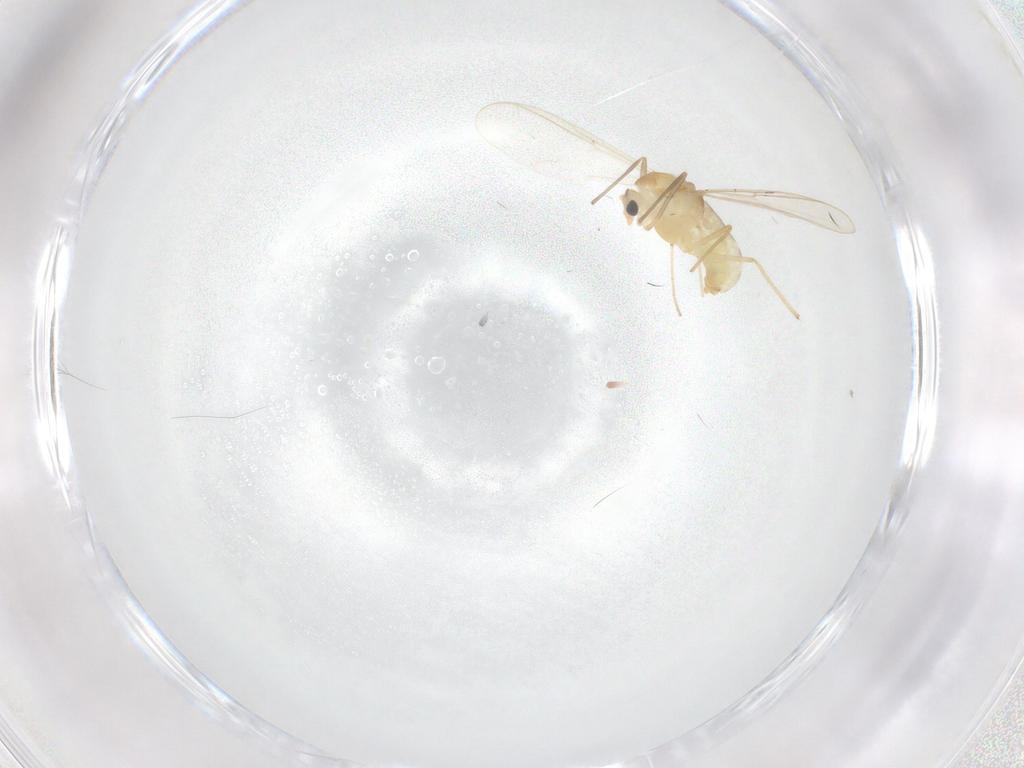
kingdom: Animalia
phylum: Arthropoda
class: Insecta
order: Diptera
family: Chironomidae
